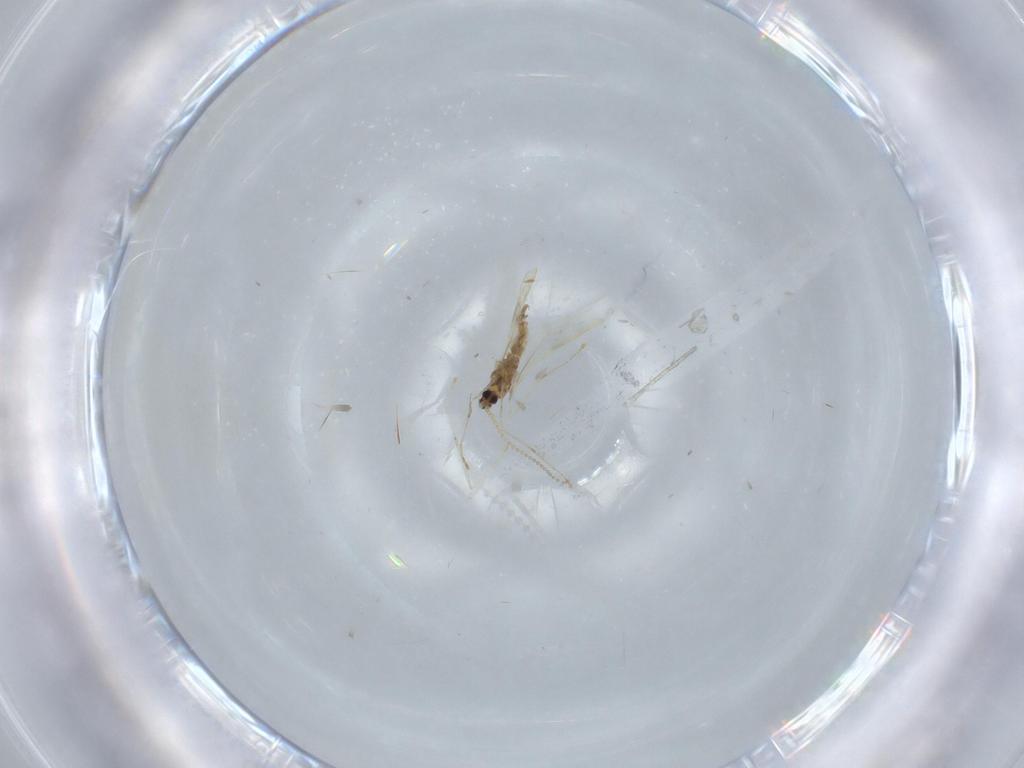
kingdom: Animalia
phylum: Arthropoda
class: Insecta
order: Diptera
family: Cecidomyiidae
